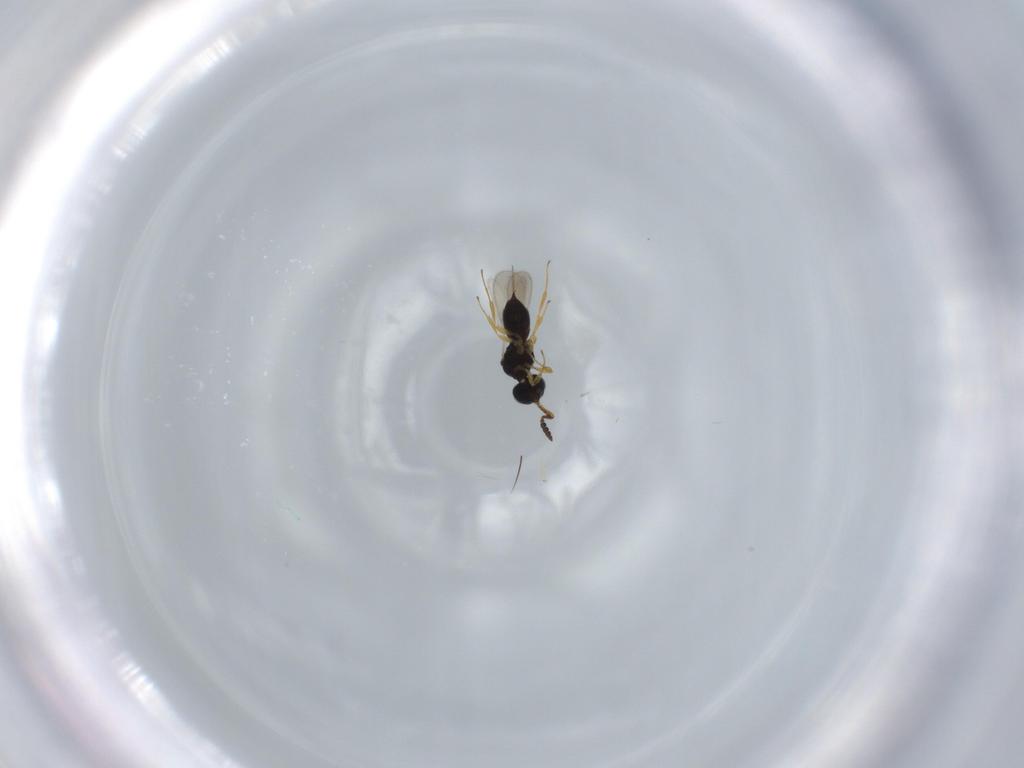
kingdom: Animalia
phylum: Arthropoda
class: Insecta
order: Hymenoptera
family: Scelionidae
